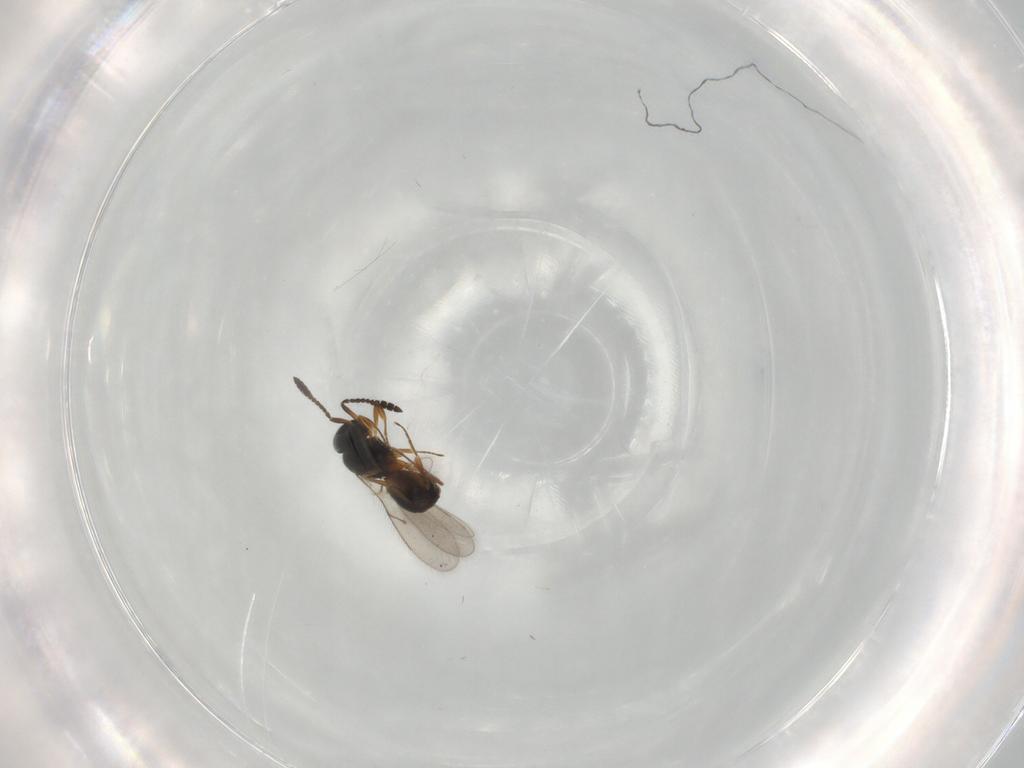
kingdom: Animalia
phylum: Arthropoda
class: Insecta
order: Hymenoptera
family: Scelionidae
